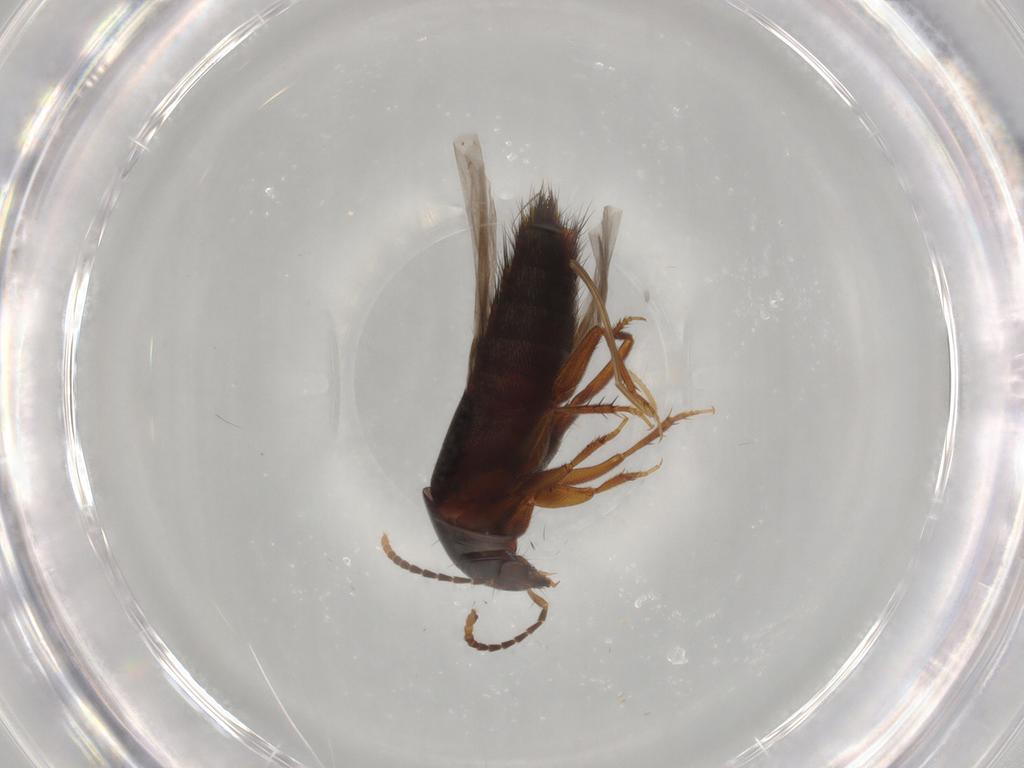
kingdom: Animalia
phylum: Arthropoda
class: Insecta
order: Coleoptera
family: Staphylinidae
